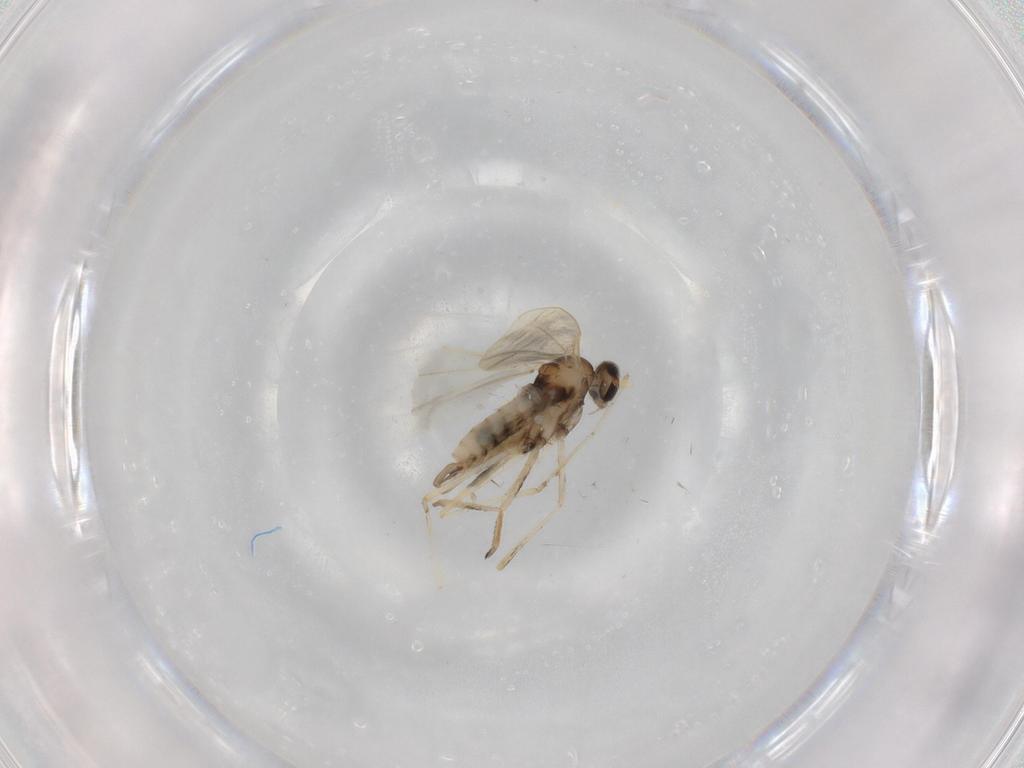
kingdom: Animalia
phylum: Arthropoda
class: Insecta
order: Diptera
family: Cecidomyiidae
